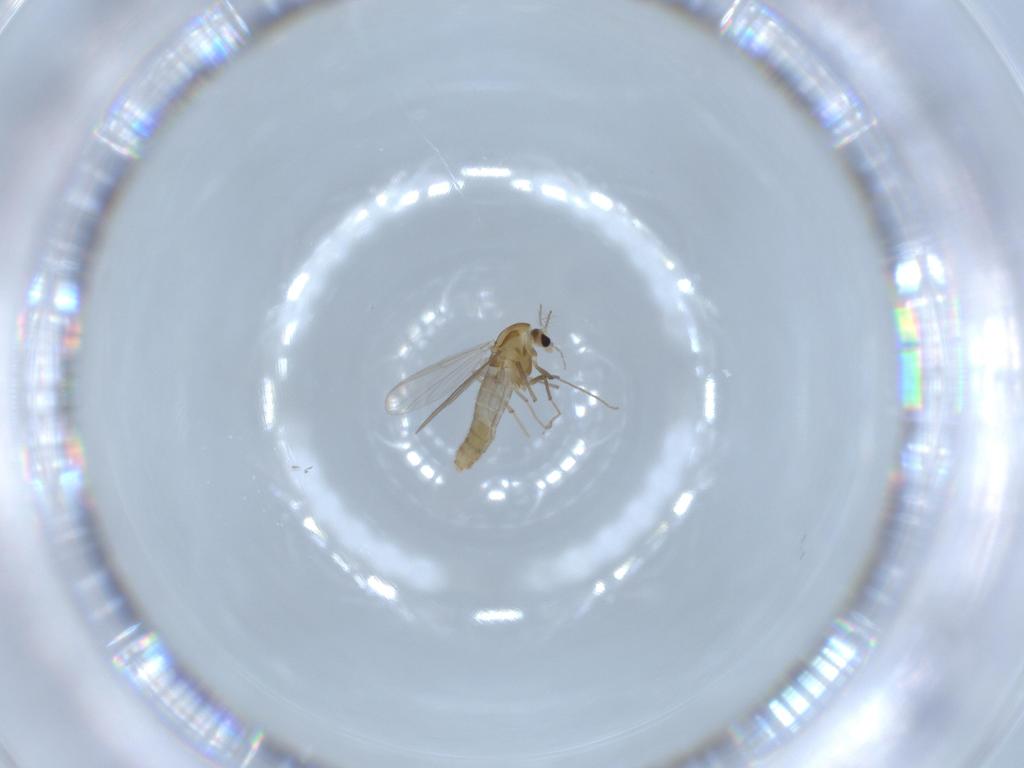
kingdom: Animalia
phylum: Arthropoda
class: Insecta
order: Diptera
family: Chironomidae
